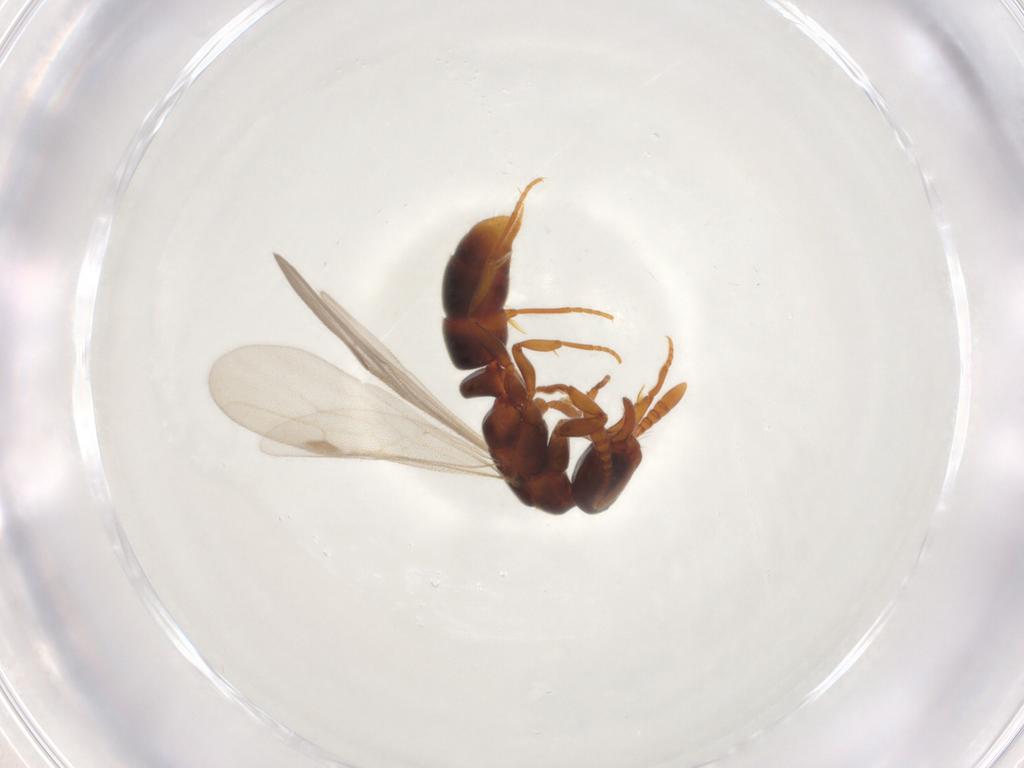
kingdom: Animalia
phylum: Arthropoda
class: Insecta
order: Hymenoptera
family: Formicidae
